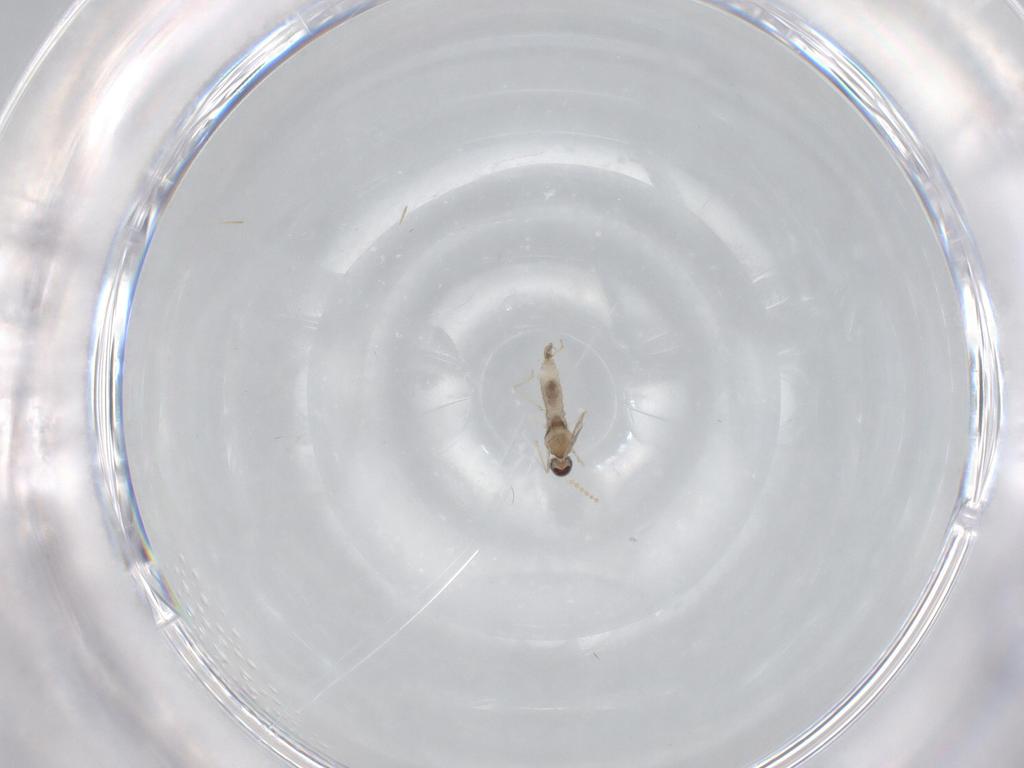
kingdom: Animalia
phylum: Arthropoda
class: Insecta
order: Diptera
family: Cecidomyiidae
